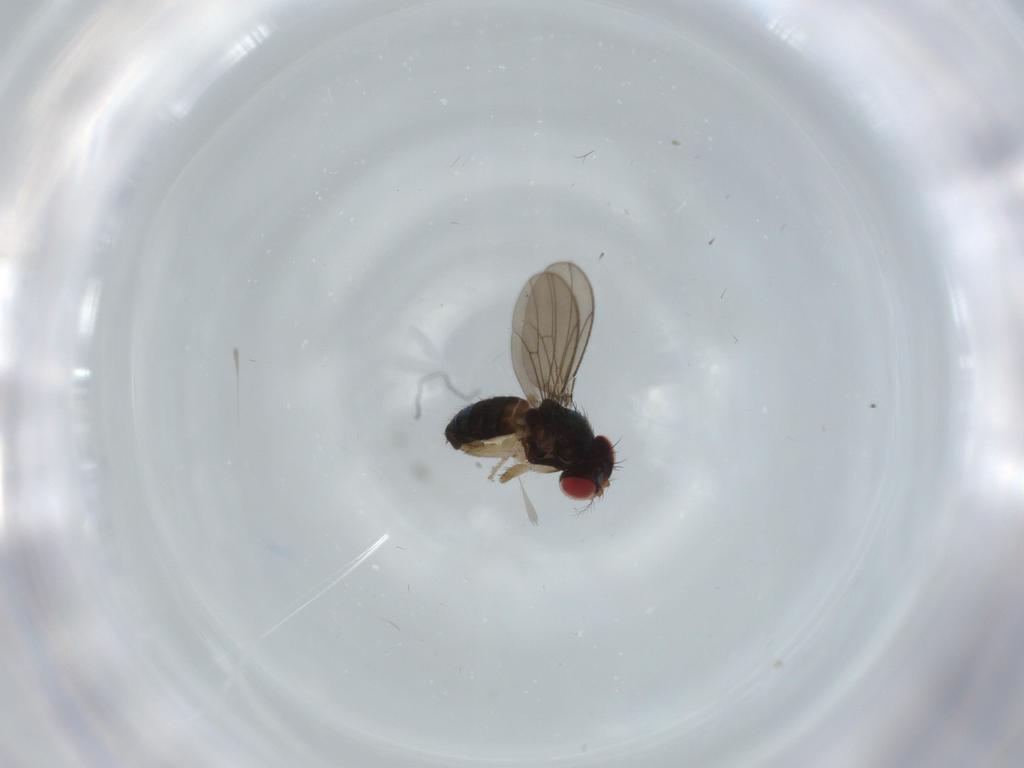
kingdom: Animalia
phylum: Arthropoda
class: Insecta
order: Diptera
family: Drosophilidae
